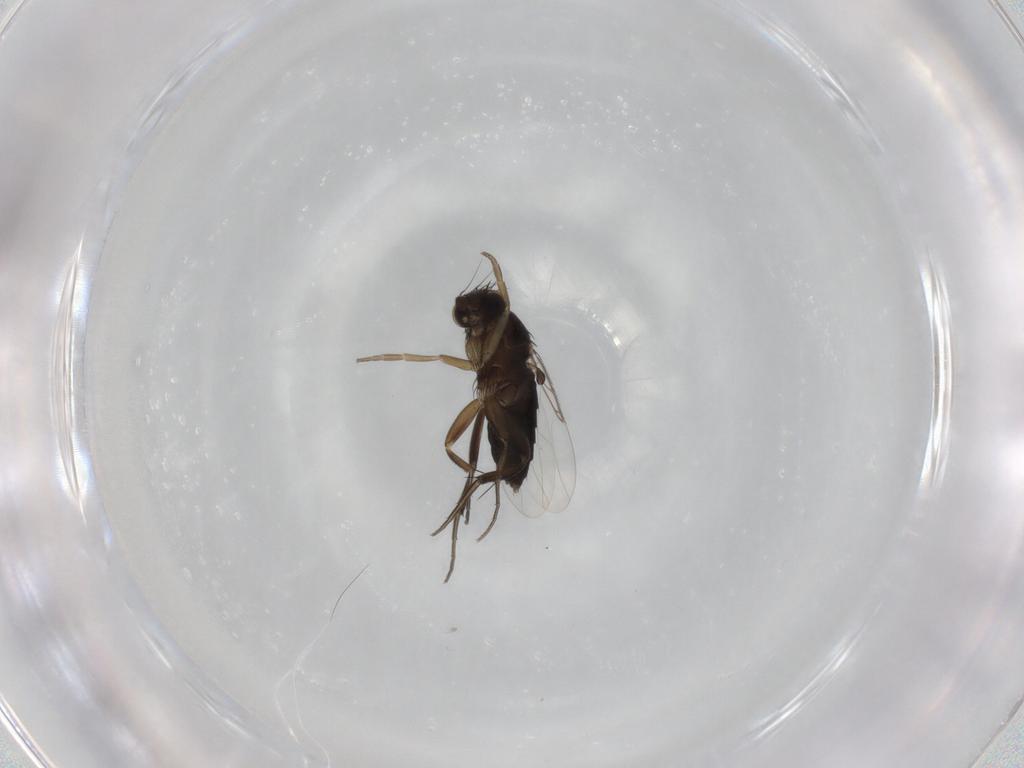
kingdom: Animalia
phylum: Arthropoda
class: Insecta
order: Diptera
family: Phoridae
